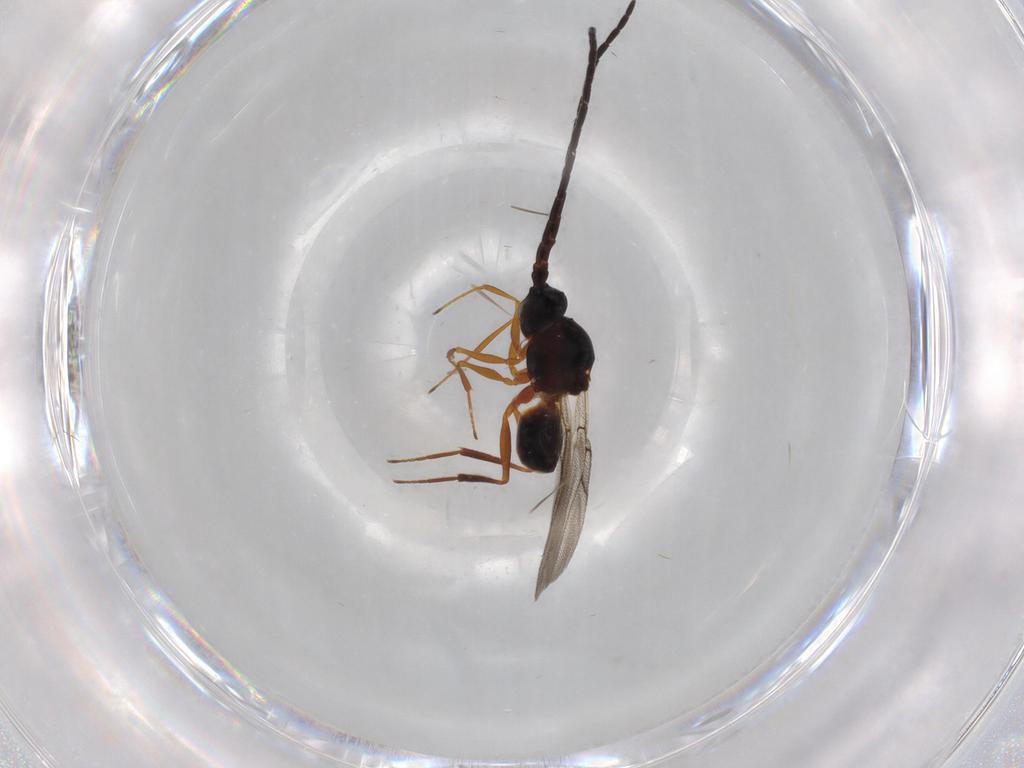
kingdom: Animalia
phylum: Arthropoda
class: Insecta
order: Hymenoptera
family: Figitidae
